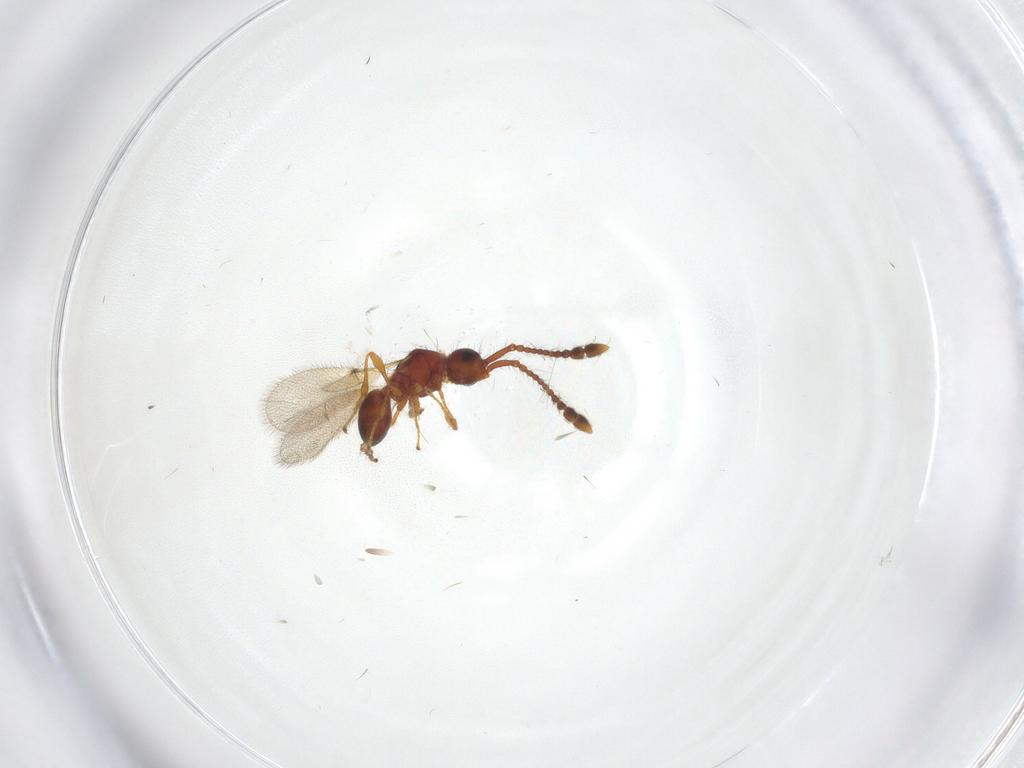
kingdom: Animalia
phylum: Arthropoda
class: Insecta
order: Hymenoptera
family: Diapriidae
